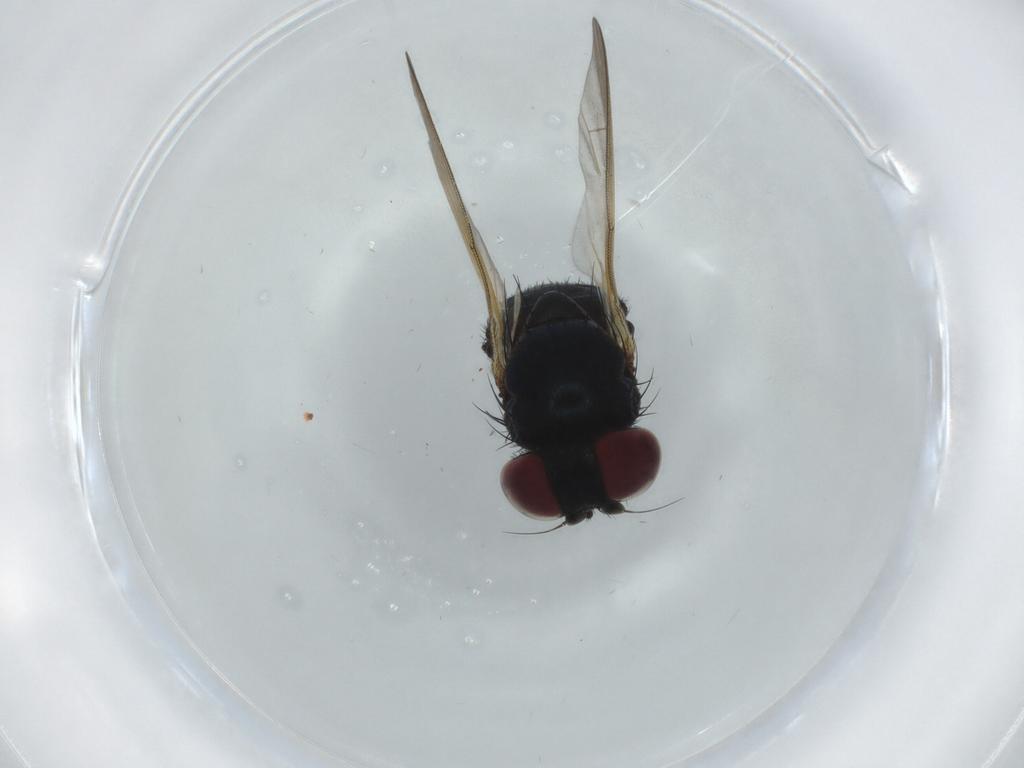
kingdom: Animalia
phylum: Arthropoda
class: Insecta
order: Diptera
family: Lonchaeidae
